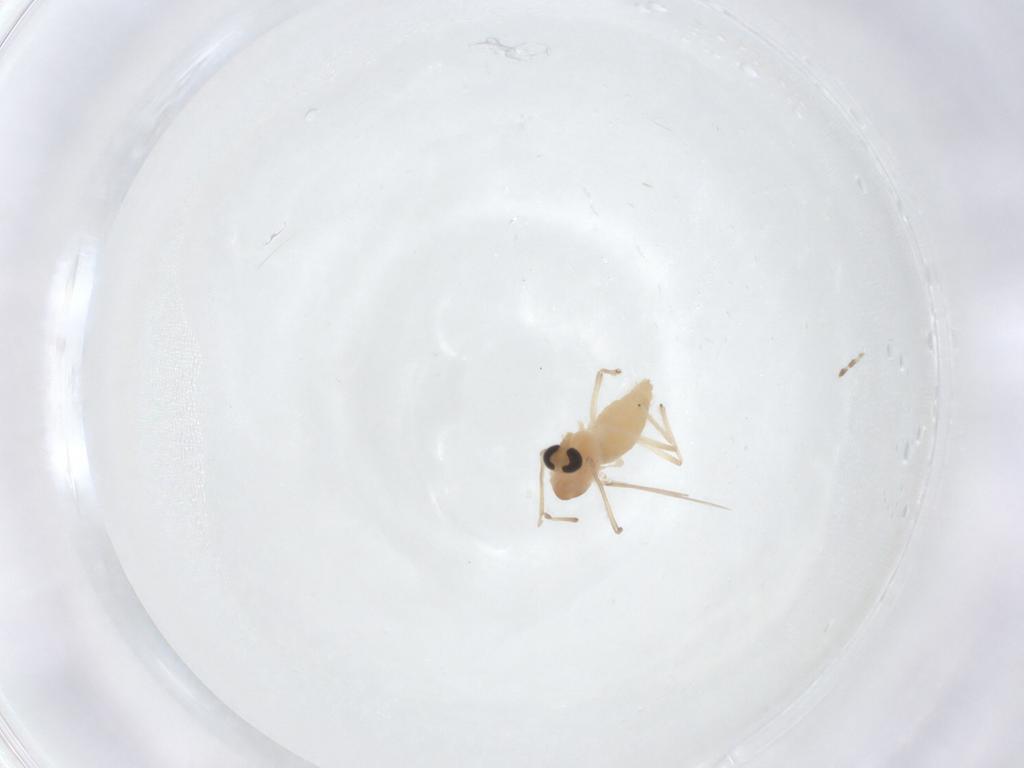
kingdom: Animalia
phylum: Arthropoda
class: Insecta
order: Diptera
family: Chironomidae
